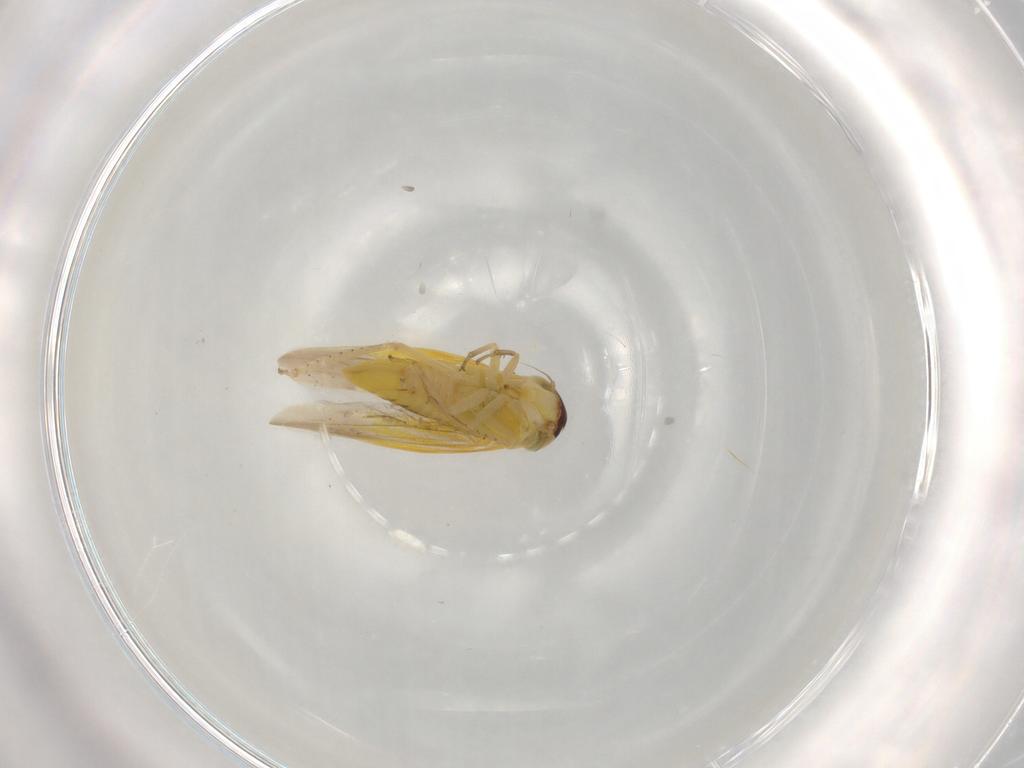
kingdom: Animalia
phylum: Arthropoda
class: Insecta
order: Hemiptera
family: Cicadellidae
